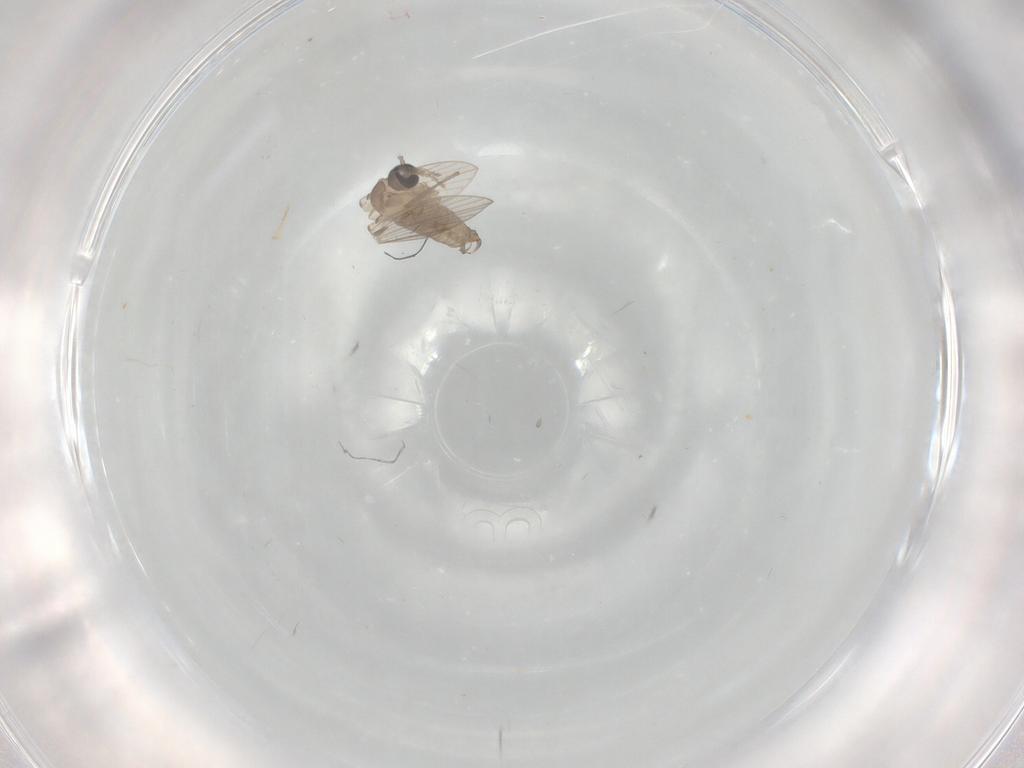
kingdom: Animalia
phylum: Arthropoda
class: Insecta
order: Diptera
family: Psychodidae
